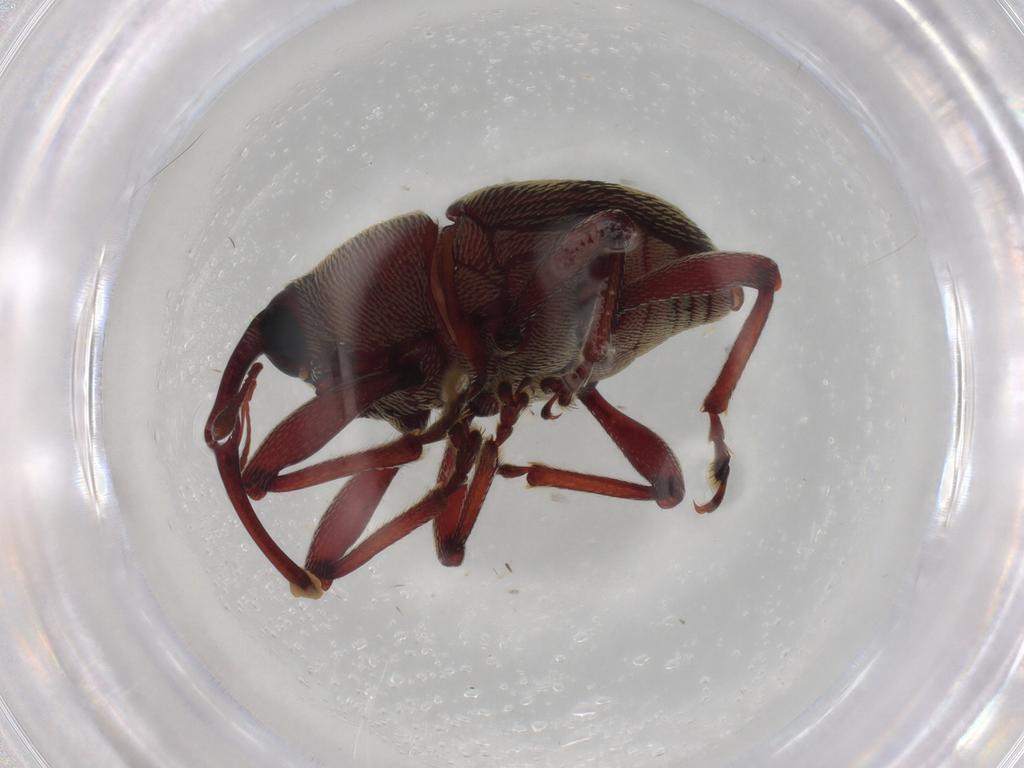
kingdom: Animalia
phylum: Arthropoda
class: Insecta
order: Coleoptera
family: Curculionidae
